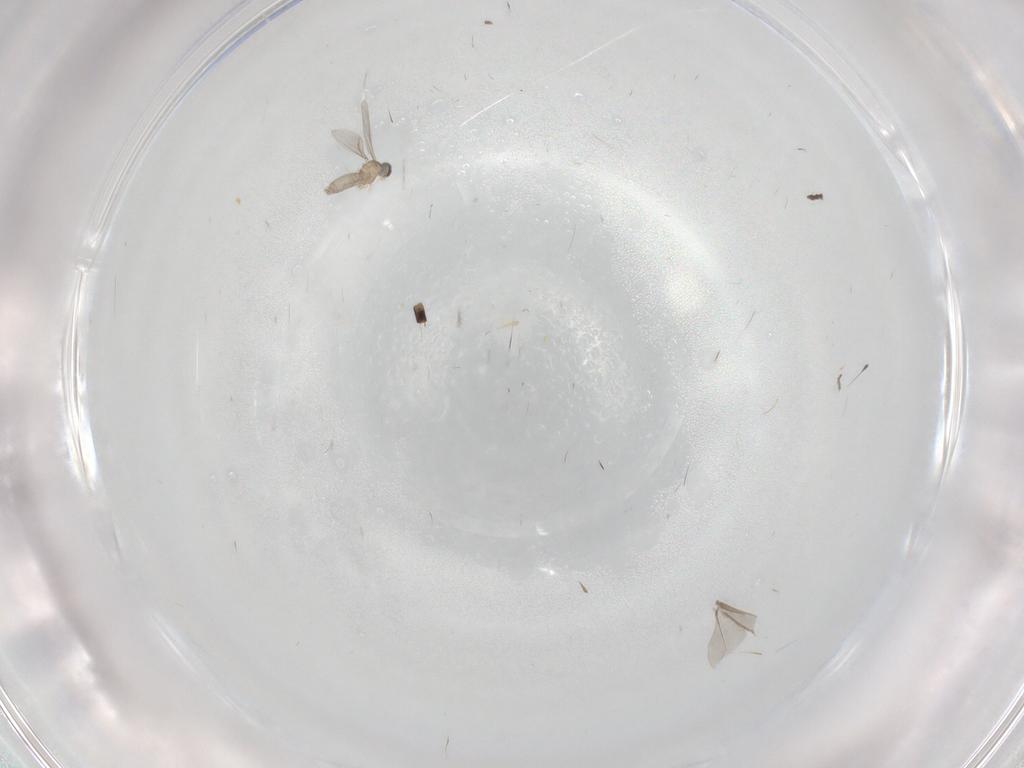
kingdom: Animalia
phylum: Arthropoda
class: Insecta
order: Diptera
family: Cecidomyiidae
